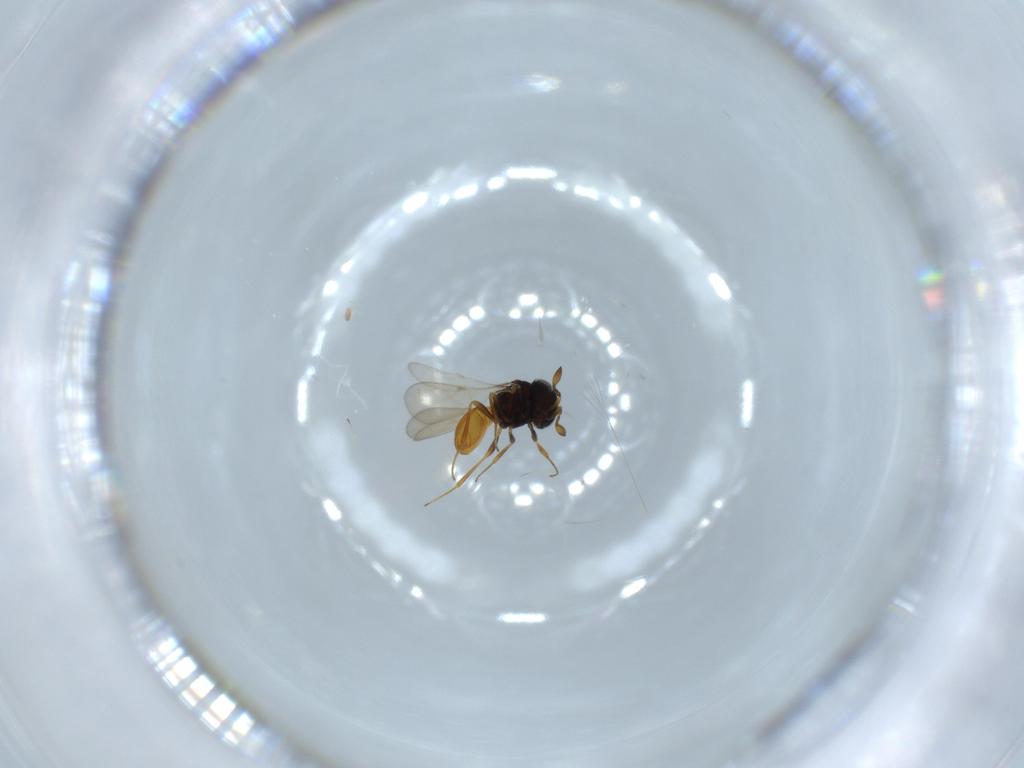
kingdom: Animalia
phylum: Arthropoda
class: Insecta
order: Hymenoptera
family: Scelionidae
